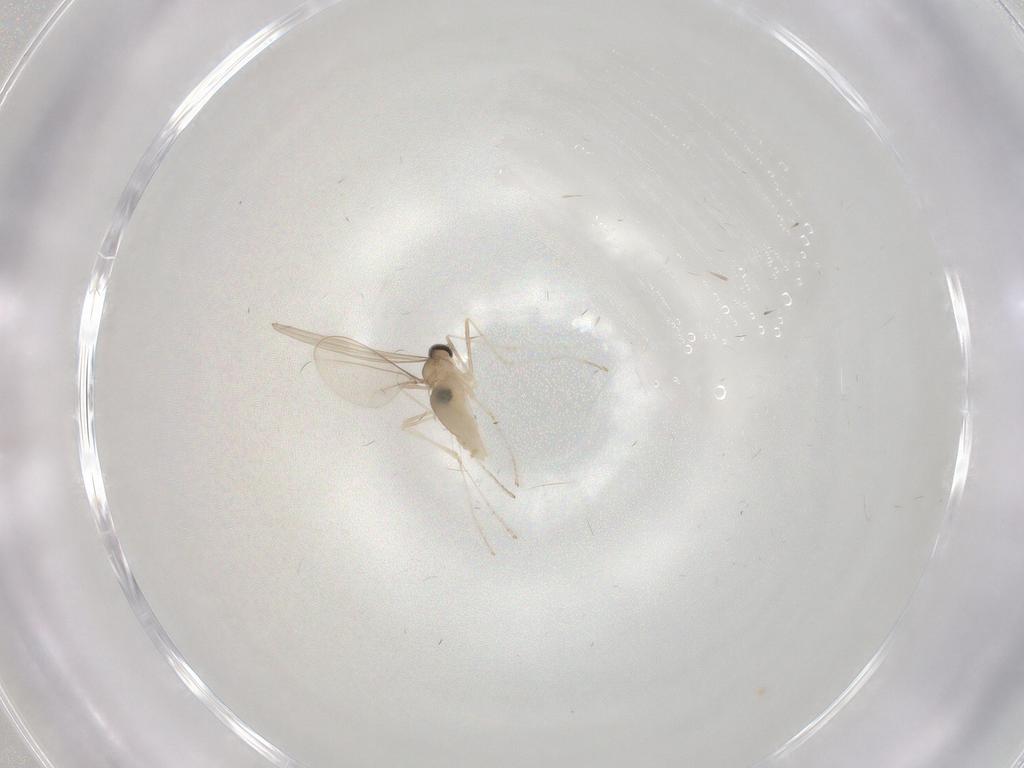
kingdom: Animalia
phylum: Arthropoda
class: Insecta
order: Diptera
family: Cecidomyiidae
